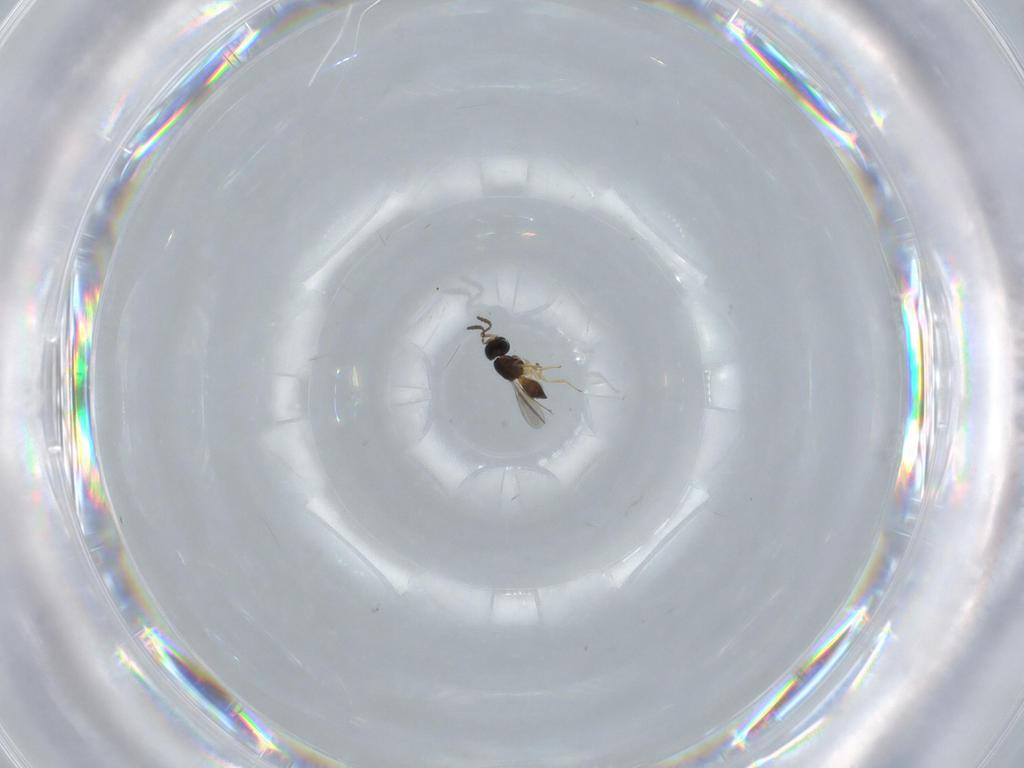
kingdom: Animalia
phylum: Arthropoda
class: Insecta
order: Hymenoptera
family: Scelionidae
